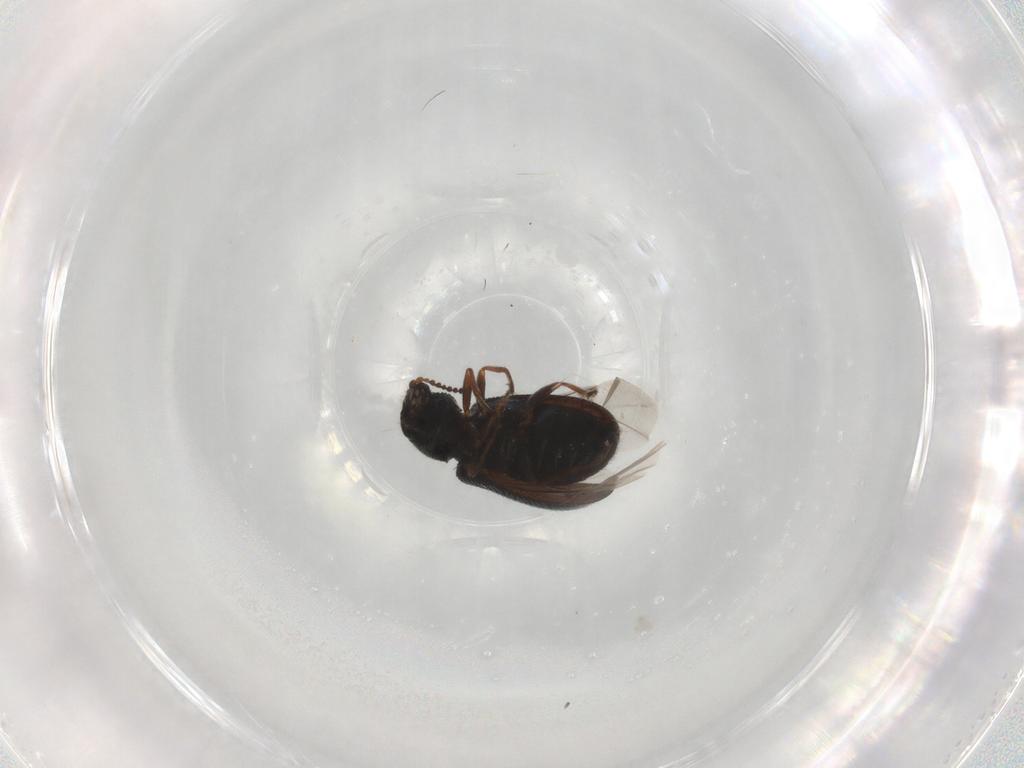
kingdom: Animalia
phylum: Arthropoda
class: Insecta
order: Coleoptera
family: Melyridae
